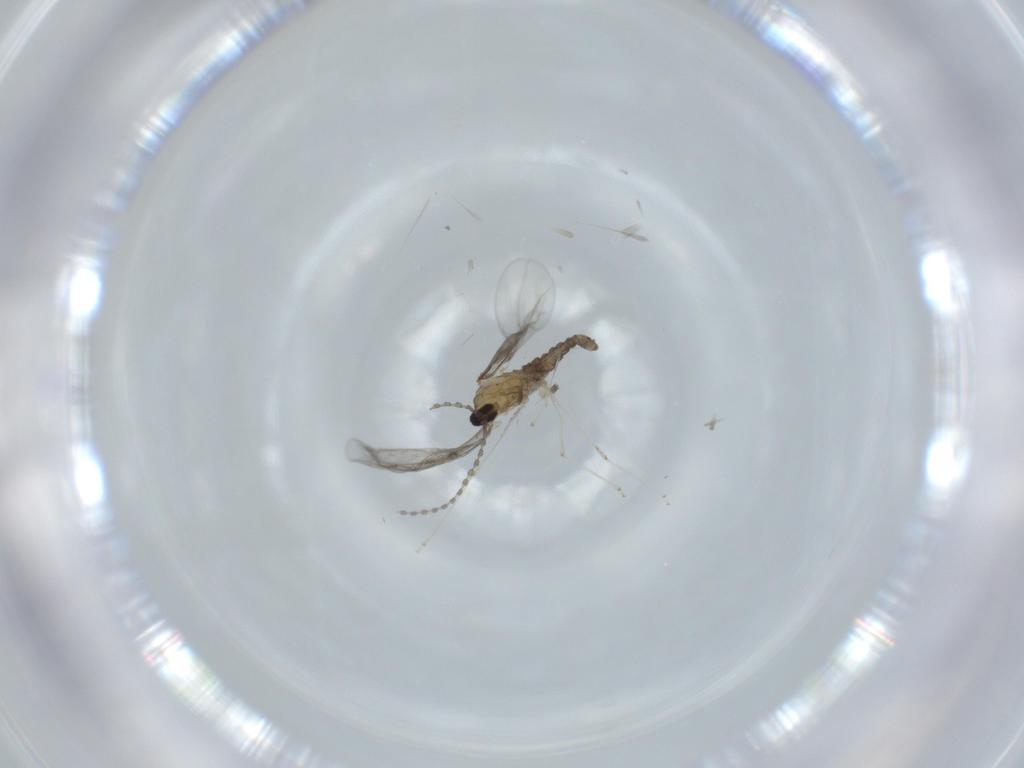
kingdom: Animalia
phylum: Arthropoda
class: Insecta
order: Diptera
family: Cecidomyiidae
